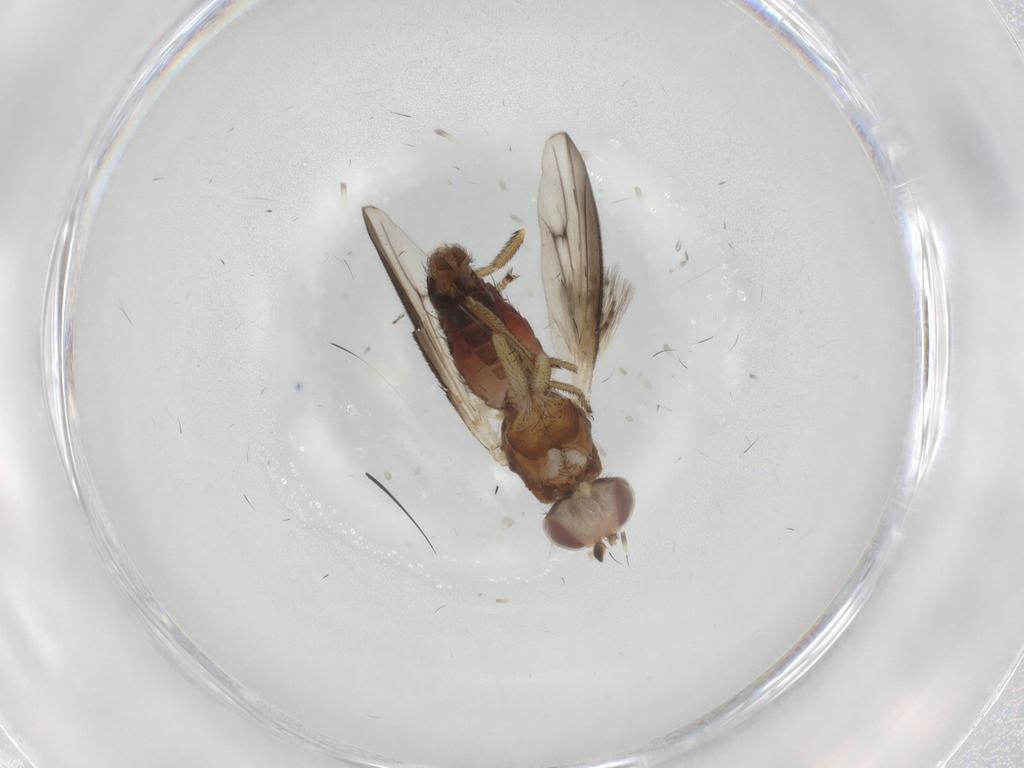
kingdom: Animalia
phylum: Arthropoda
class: Insecta
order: Diptera
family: Heleomyzidae
